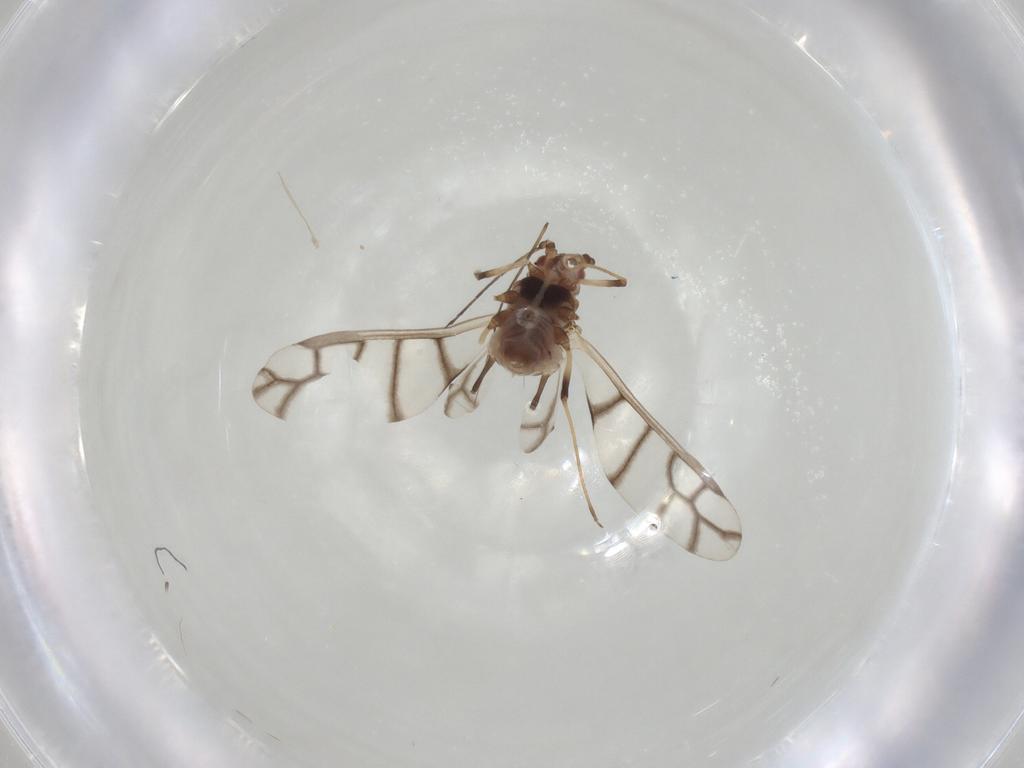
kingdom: Animalia
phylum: Arthropoda
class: Insecta
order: Hemiptera
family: Aphididae
